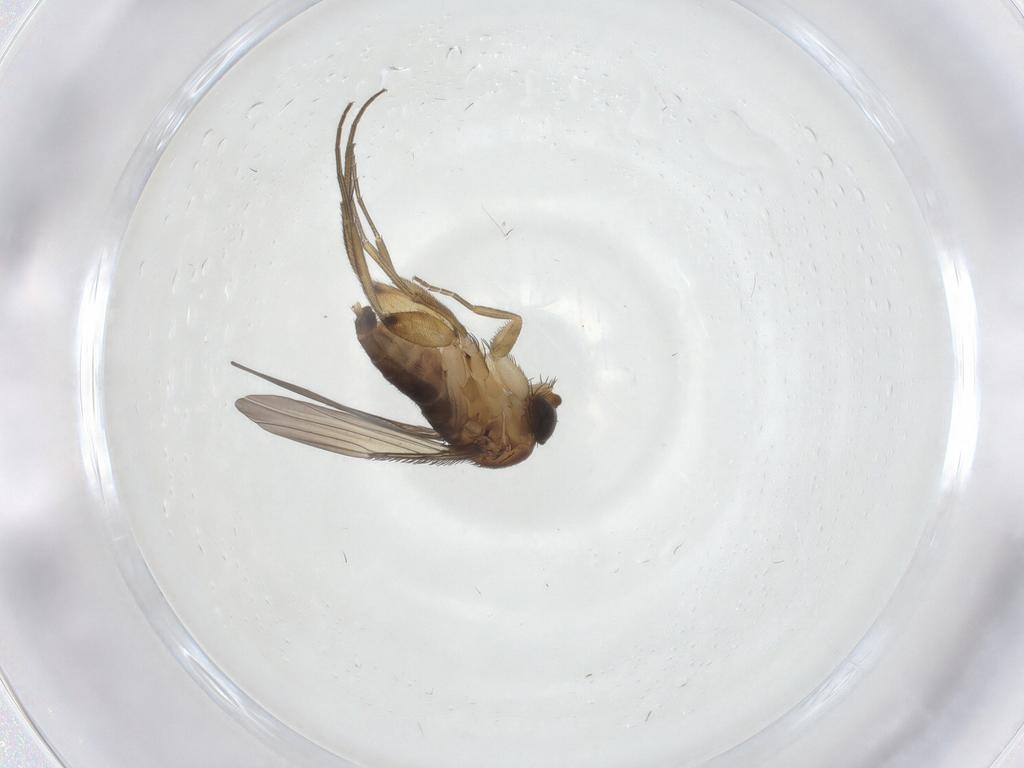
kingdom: Animalia
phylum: Arthropoda
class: Insecta
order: Diptera
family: Phoridae
